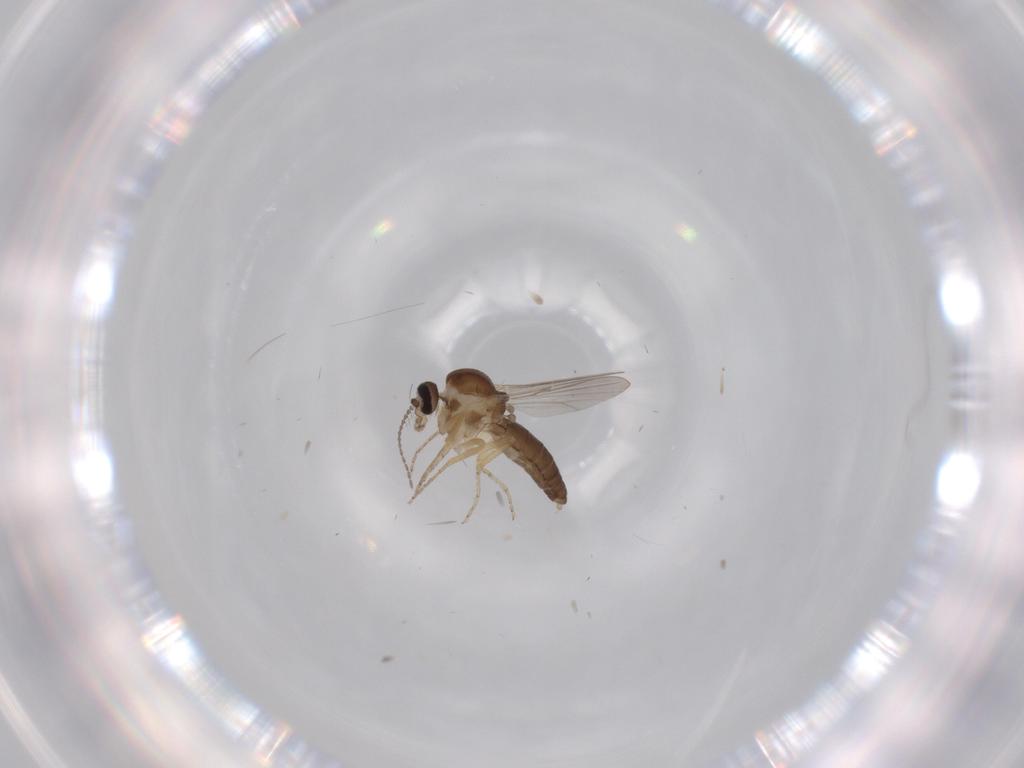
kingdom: Animalia
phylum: Arthropoda
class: Insecta
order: Diptera
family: Ceratopogonidae
